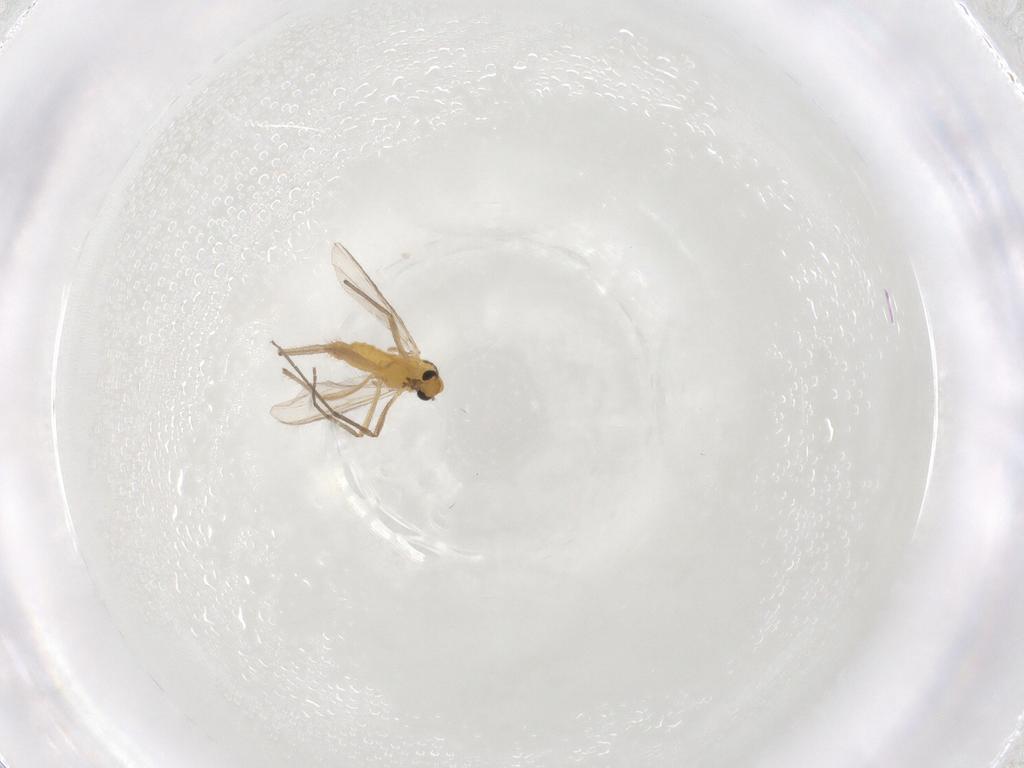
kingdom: Animalia
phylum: Arthropoda
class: Insecta
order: Diptera
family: Chironomidae
